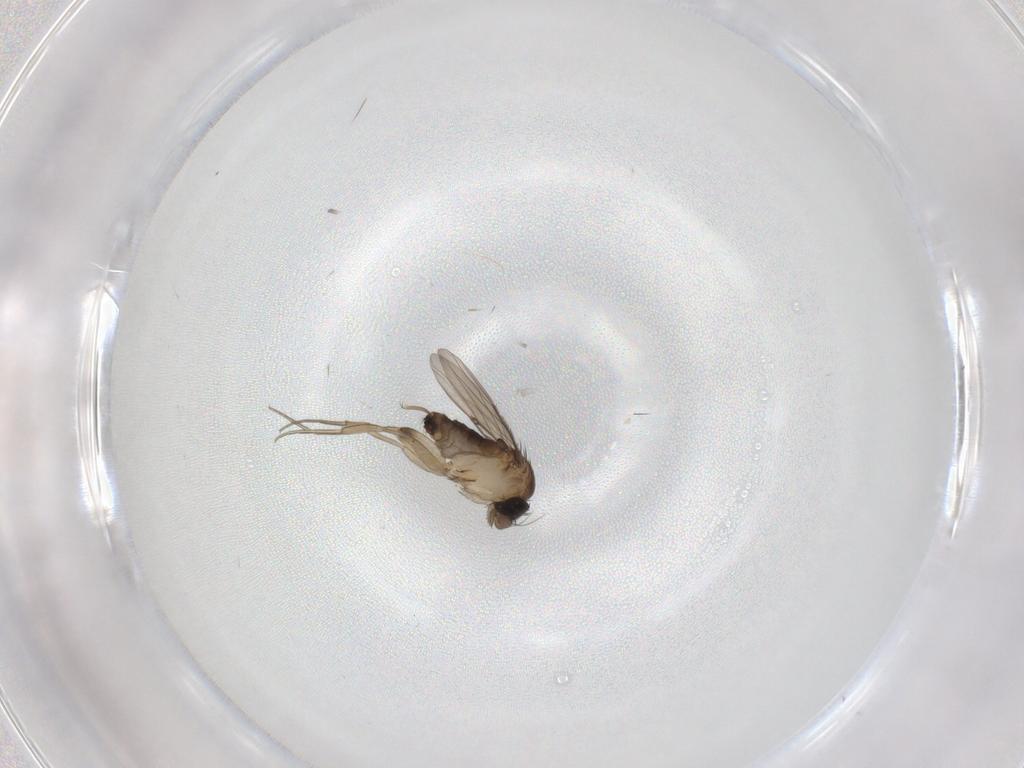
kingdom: Animalia
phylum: Arthropoda
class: Insecta
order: Diptera
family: Phoridae
